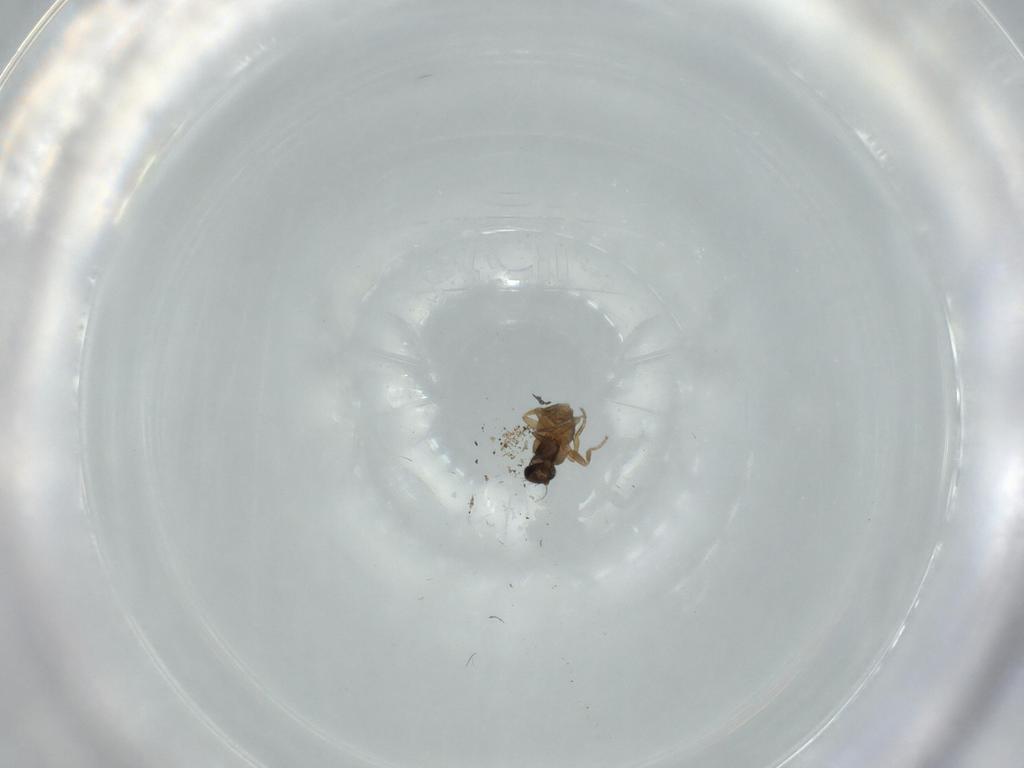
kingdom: Animalia
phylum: Arthropoda
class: Insecta
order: Diptera
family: Phoridae
